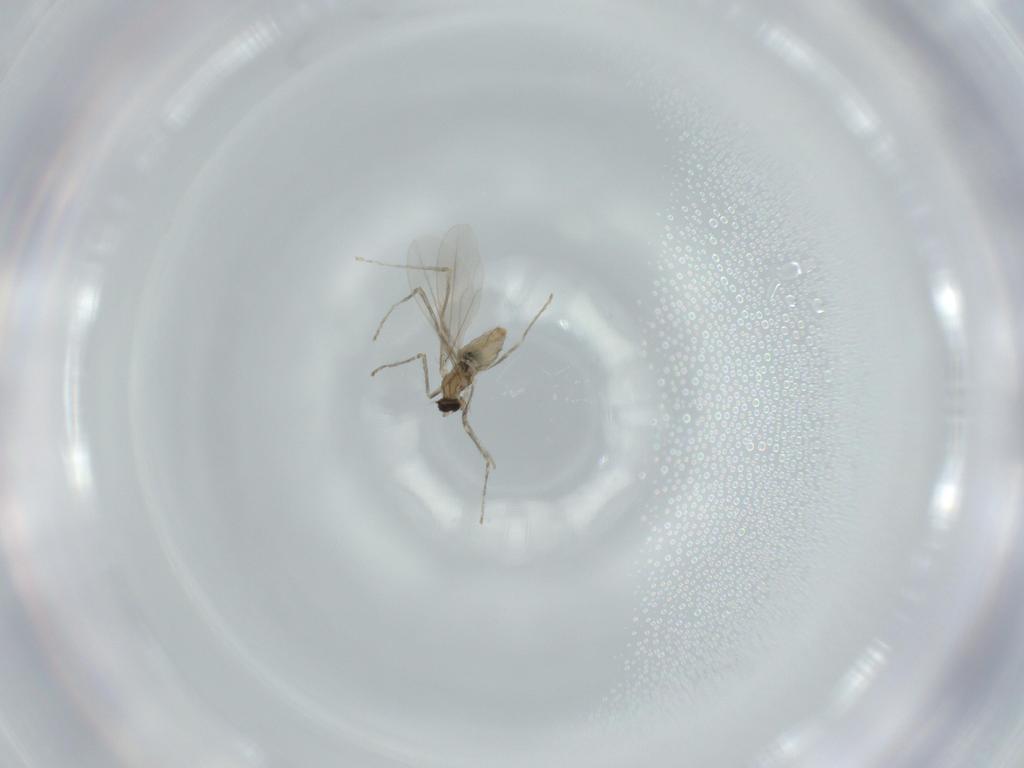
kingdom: Animalia
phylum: Arthropoda
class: Insecta
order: Diptera
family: Cecidomyiidae
